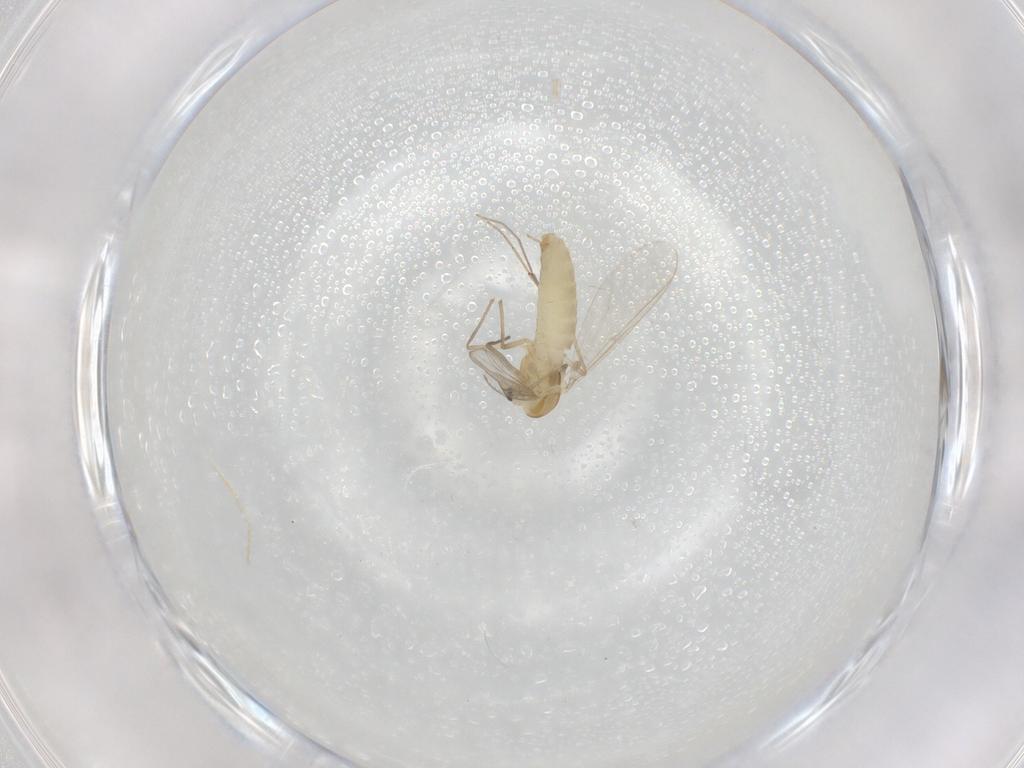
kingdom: Animalia
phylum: Arthropoda
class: Insecta
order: Diptera
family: Chironomidae
